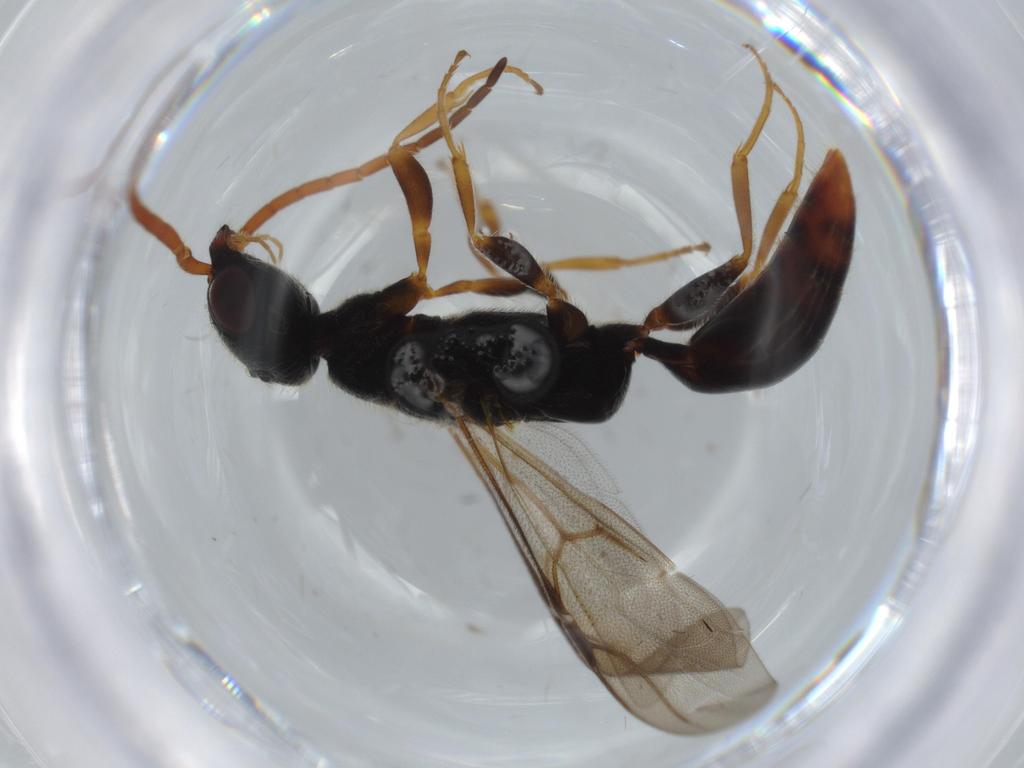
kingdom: Animalia
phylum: Arthropoda
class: Insecta
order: Hymenoptera
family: Bethylidae
